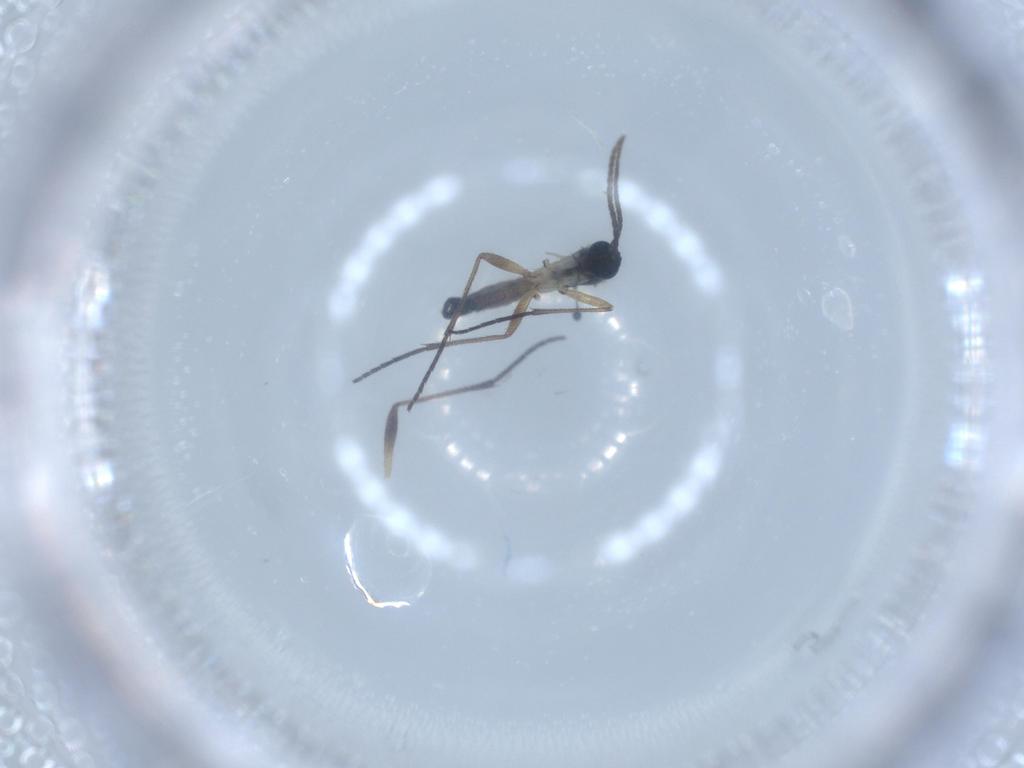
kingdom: Animalia
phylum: Arthropoda
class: Insecta
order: Diptera
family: Sciaridae
